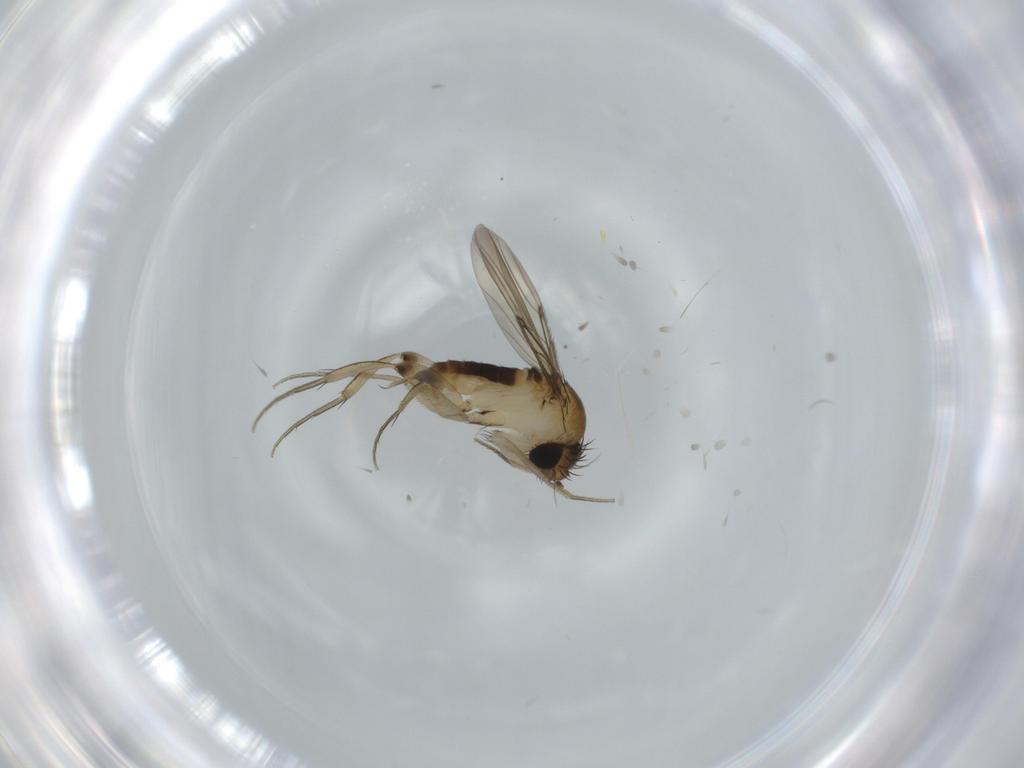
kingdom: Animalia
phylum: Arthropoda
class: Insecta
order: Diptera
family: Phoridae
